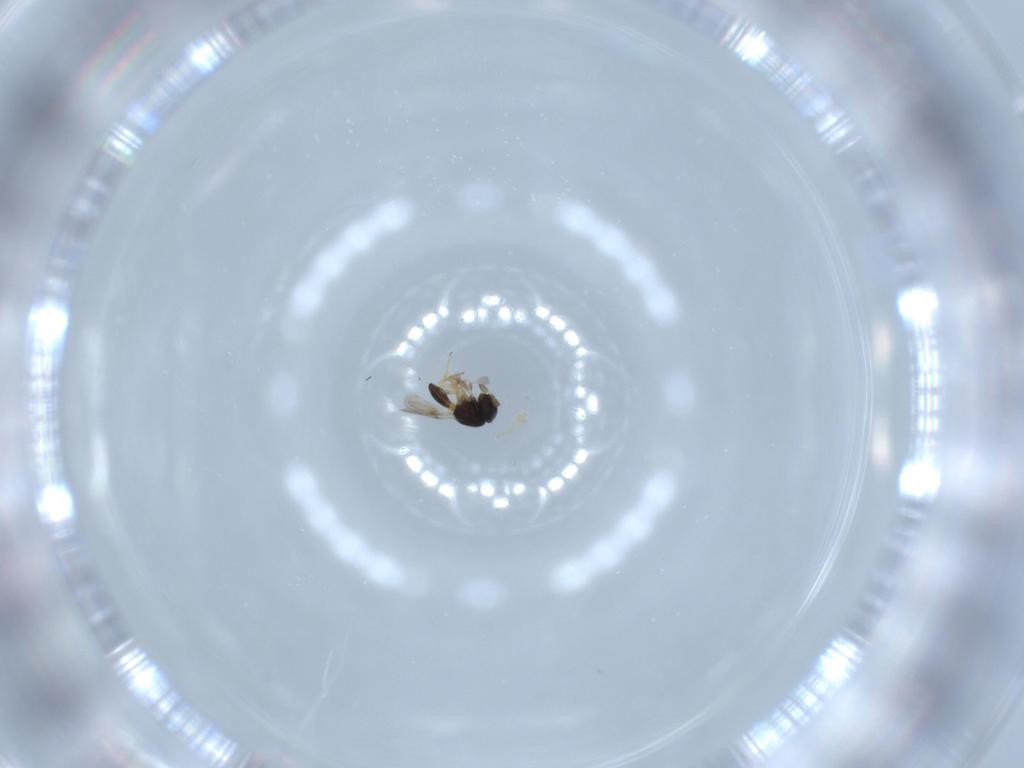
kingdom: Animalia
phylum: Arthropoda
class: Insecta
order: Hymenoptera
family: Scelionidae
